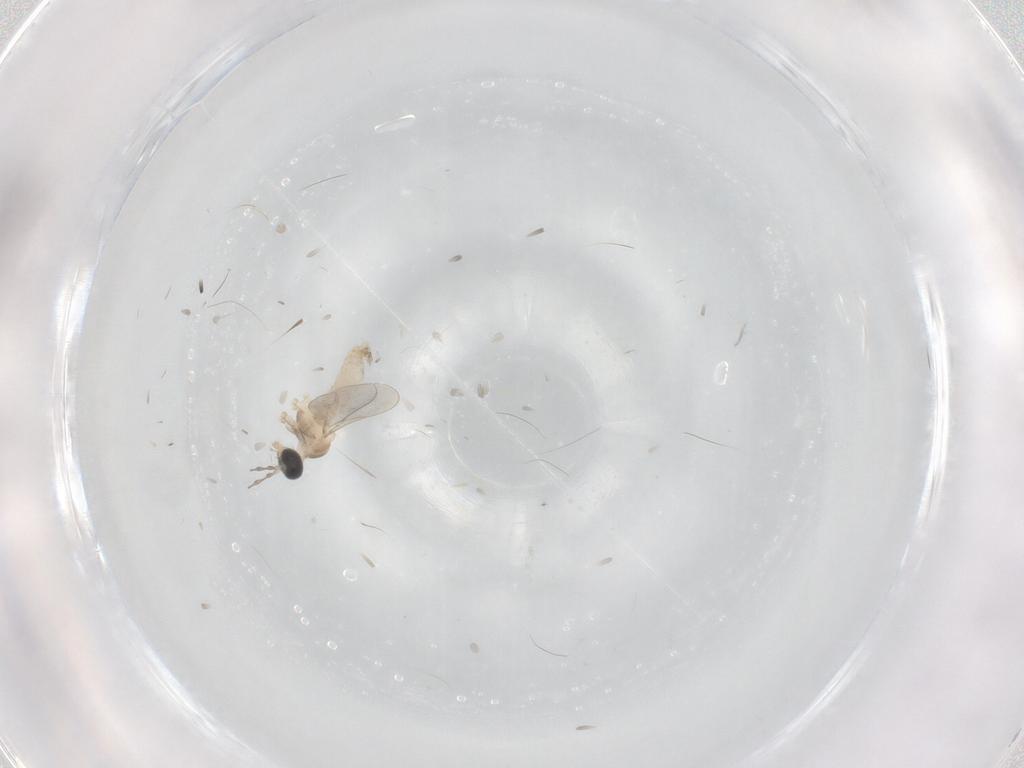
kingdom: Animalia
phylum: Arthropoda
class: Insecta
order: Diptera
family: Cecidomyiidae
